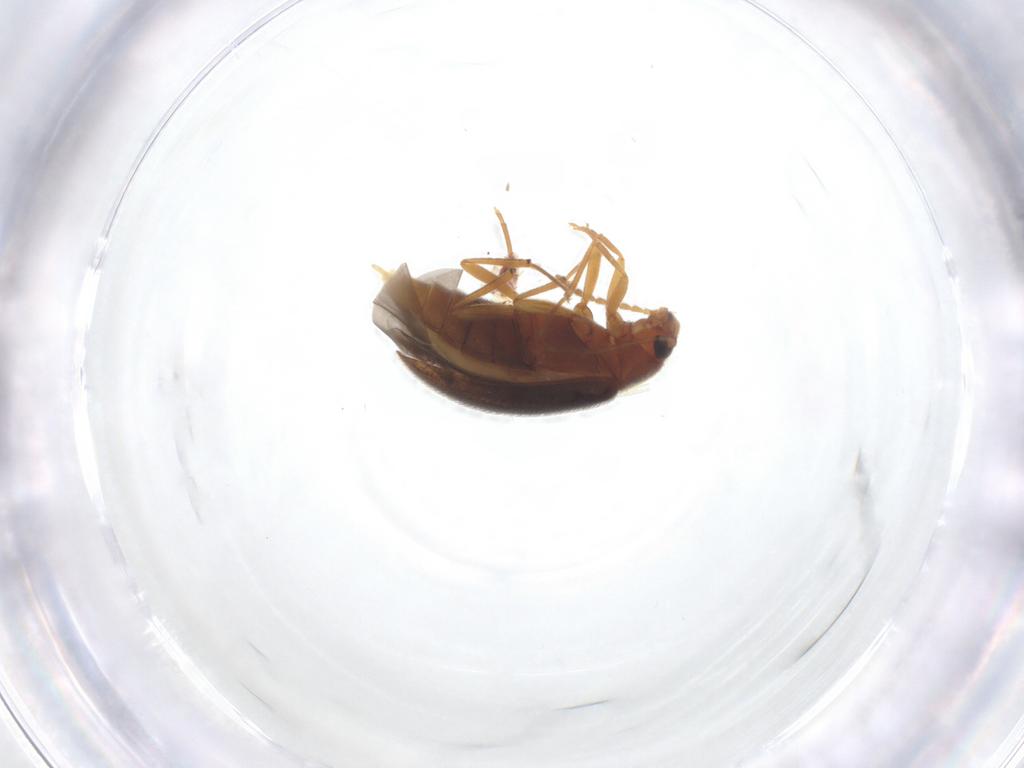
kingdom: Animalia
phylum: Arthropoda
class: Insecta
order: Coleoptera
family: Melandryidae
